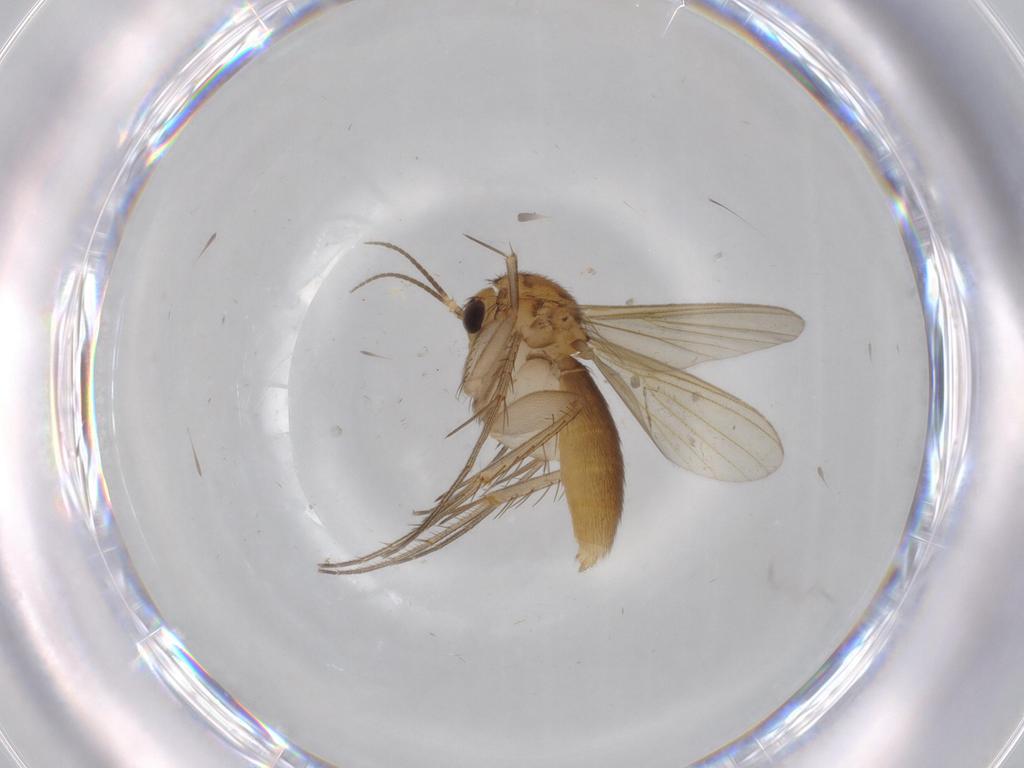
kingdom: Animalia
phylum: Arthropoda
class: Insecta
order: Diptera
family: Mycetophilidae
